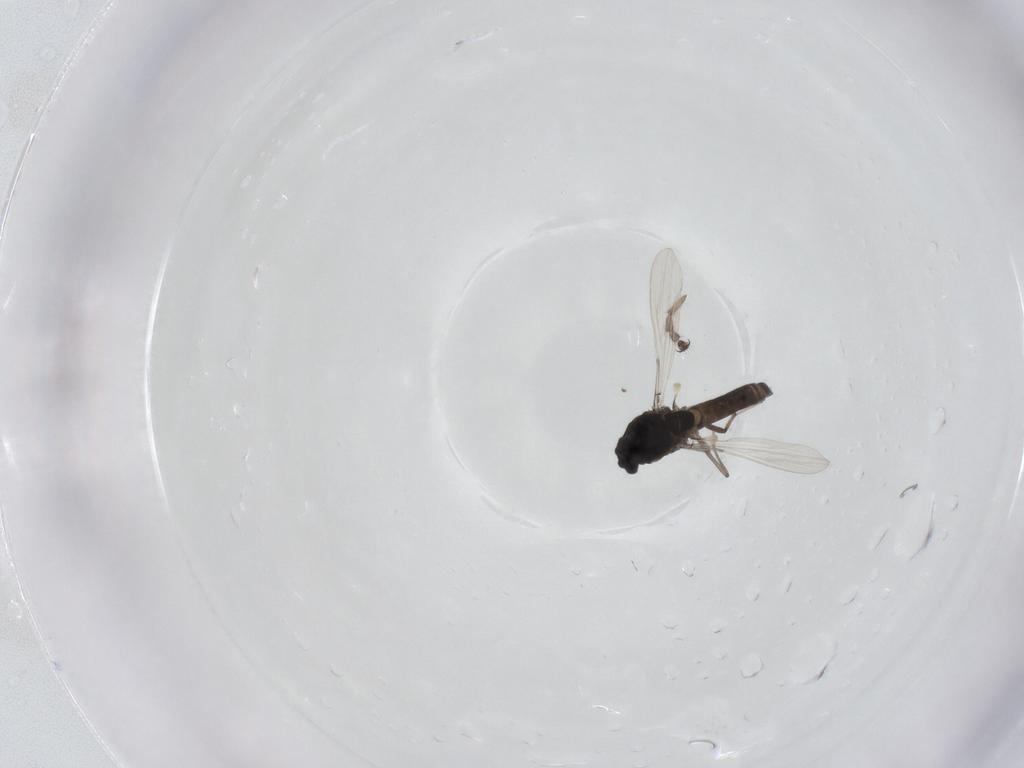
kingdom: Animalia
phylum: Arthropoda
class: Insecta
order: Diptera
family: Chironomidae
